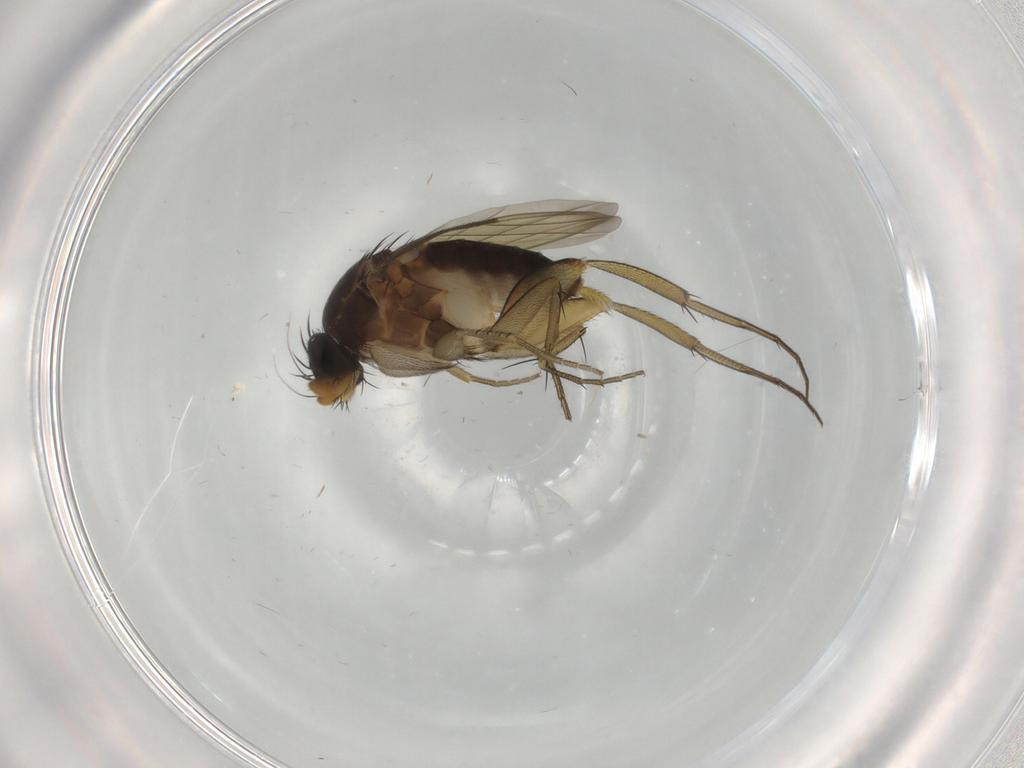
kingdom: Animalia
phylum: Arthropoda
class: Insecta
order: Diptera
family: Phoridae
